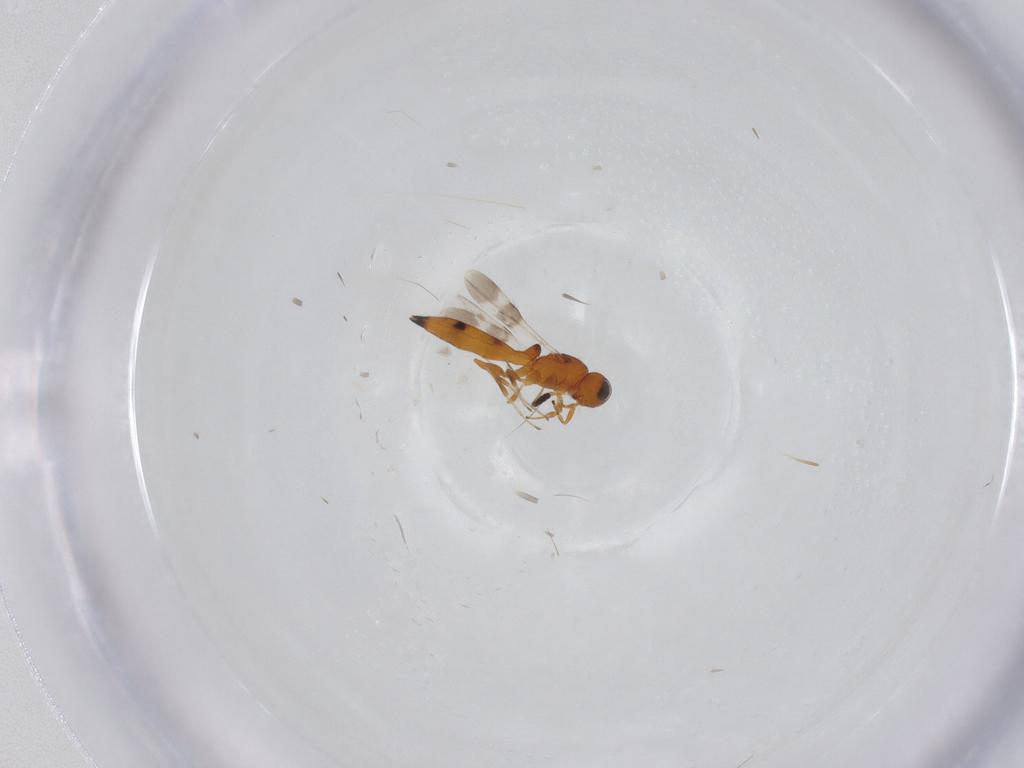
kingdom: Animalia
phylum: Arthropoda
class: Insecta
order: Hymenoptera
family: Scelionidae
